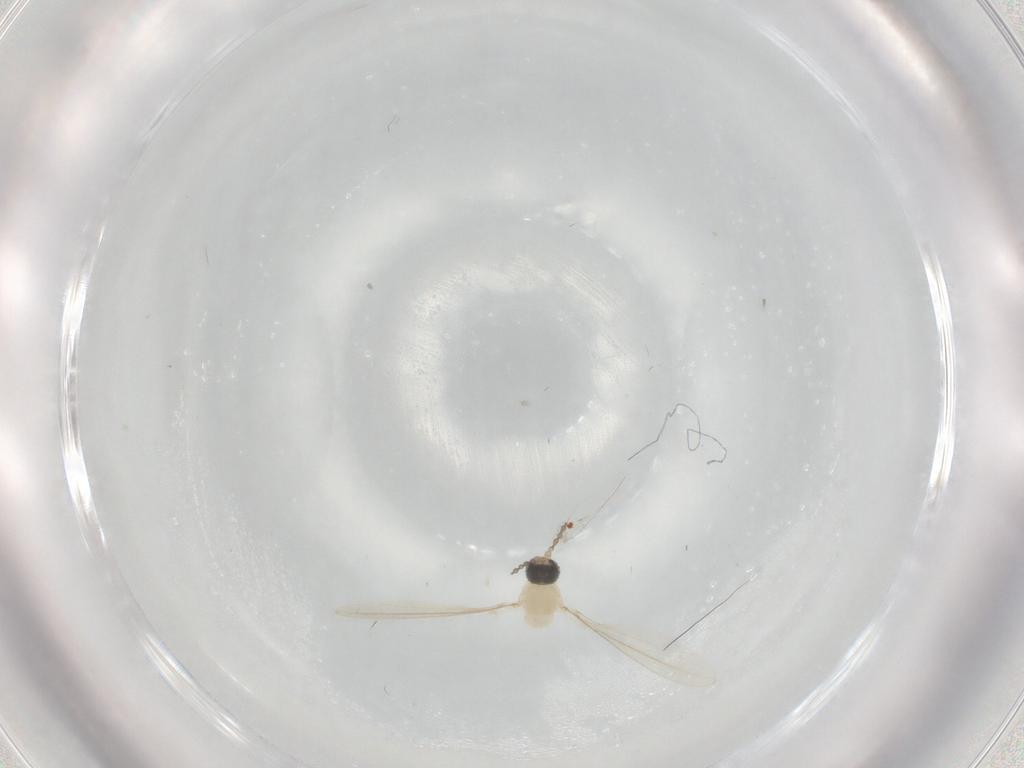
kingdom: Animalia
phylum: Arthropoda
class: Insecta
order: Diptera
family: Cecidomyiidae
